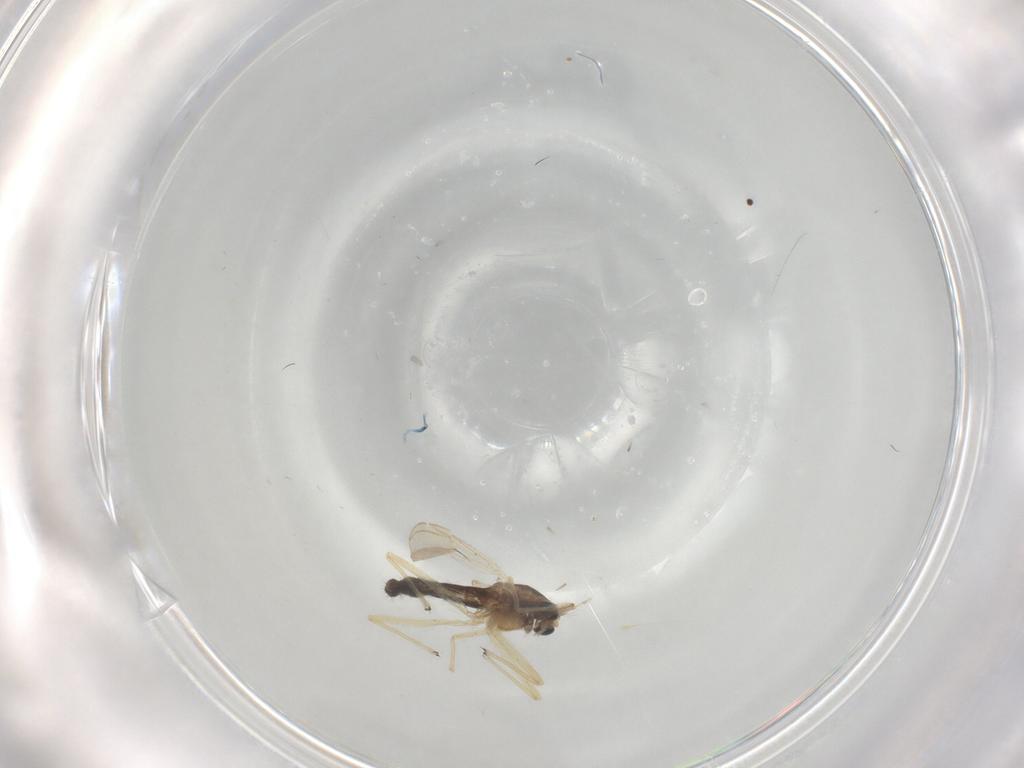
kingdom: Animalia
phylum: Arthropoda
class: Insecta
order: Diptera
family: Chironomidae
